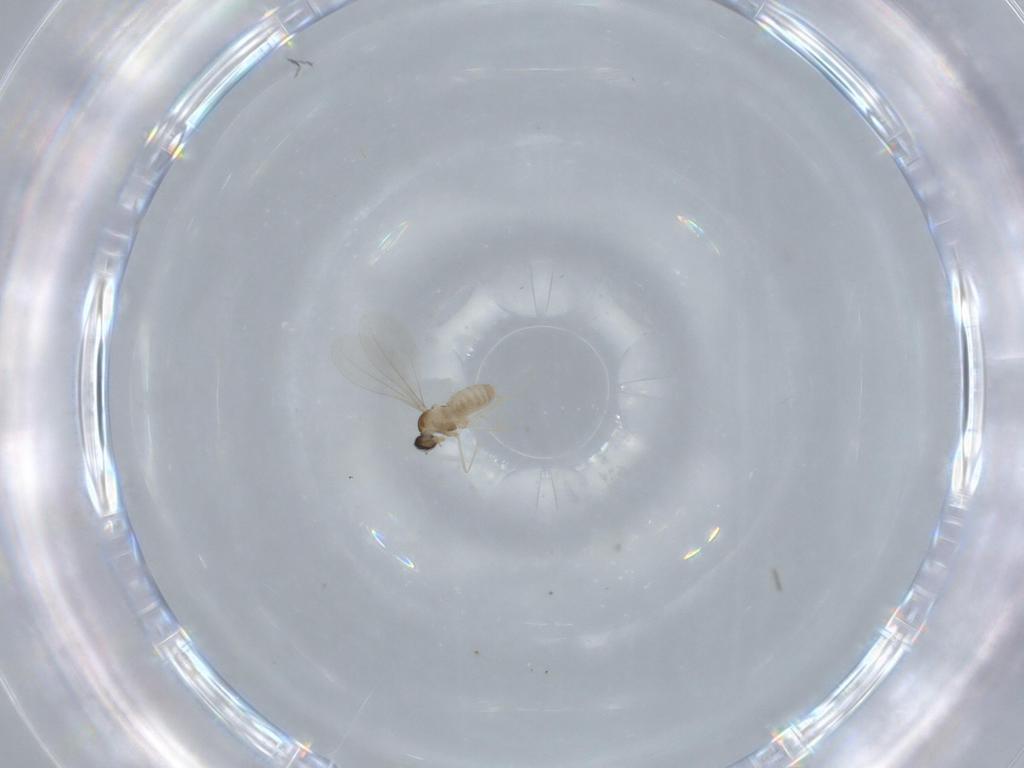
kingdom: Animalia
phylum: Arthropoda
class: Insecta
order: Diptera
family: Cecidomyiidae
